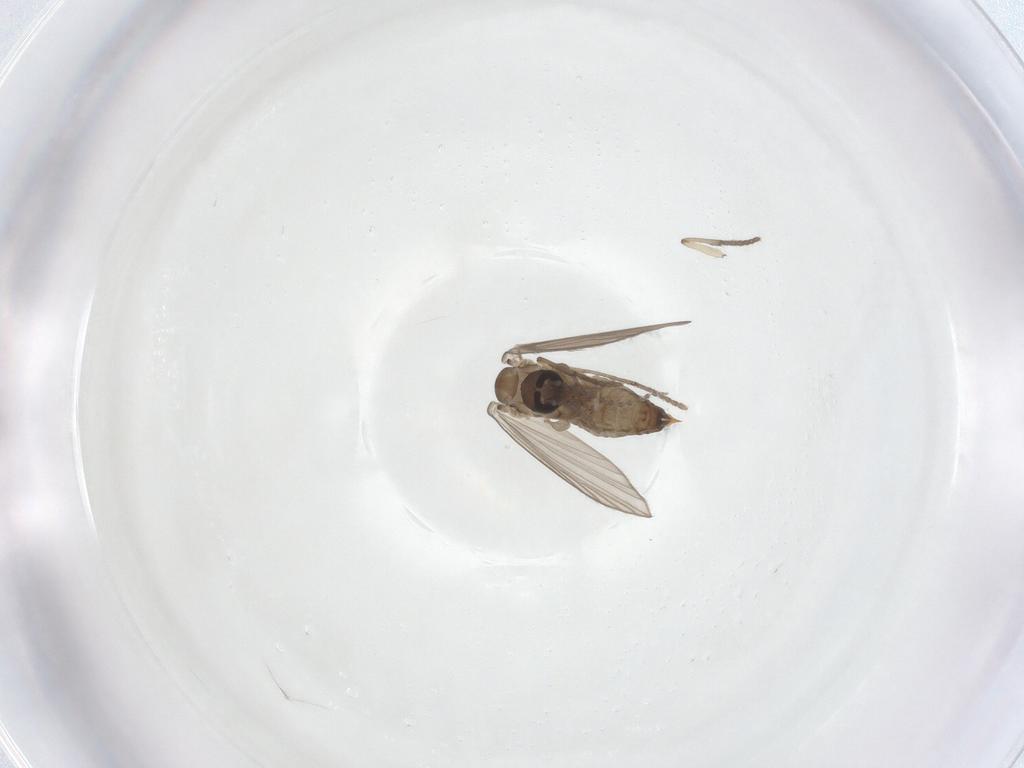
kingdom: Animalia
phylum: Arthropoda
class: Insecta
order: Diptera
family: Psychodidae
